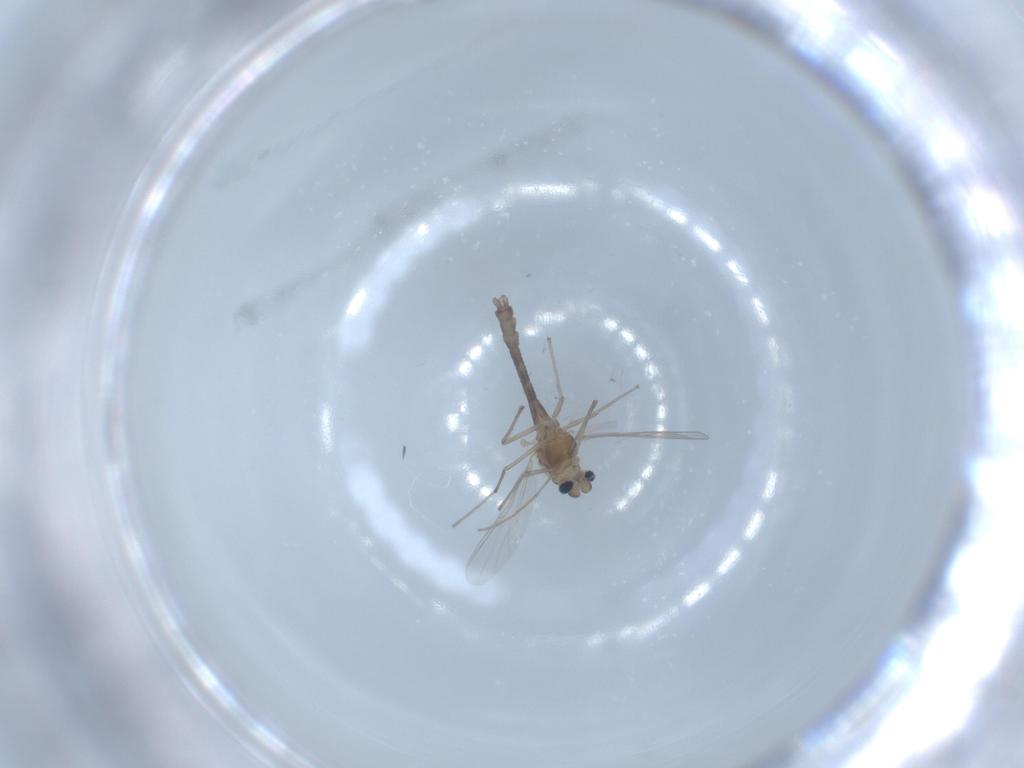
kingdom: Animalia
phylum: Arthropoda
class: Insecta
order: Diptera
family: Chironomidae
